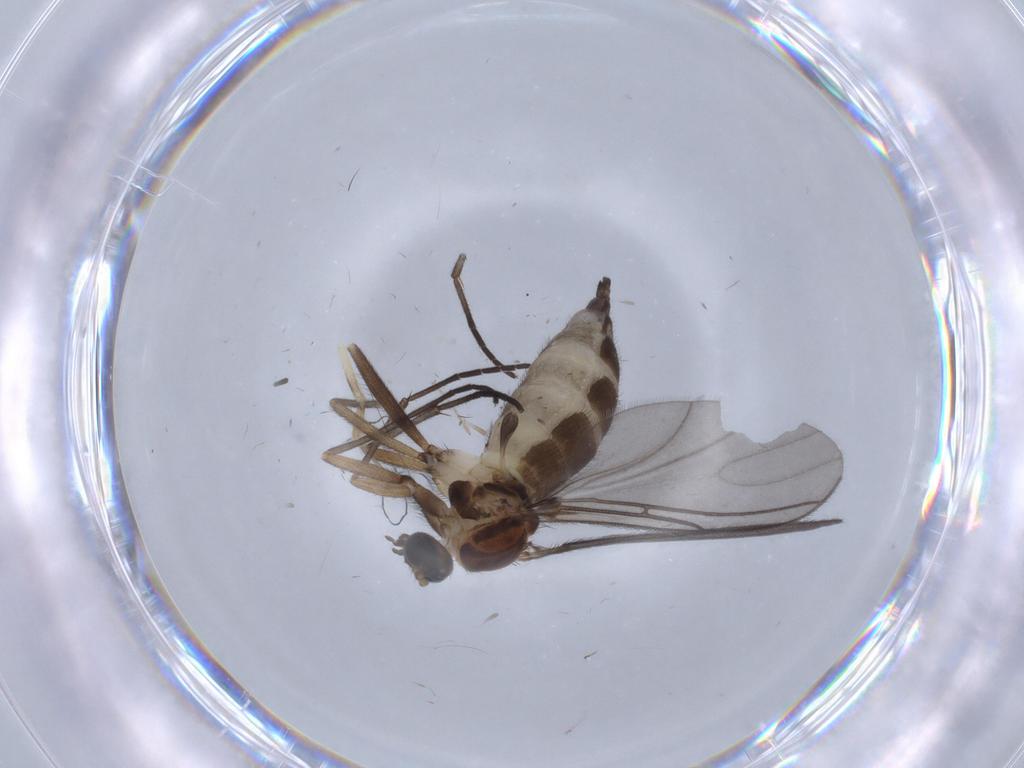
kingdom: Animalia
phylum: Arthropoda
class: Insecta
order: Diptera
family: Sciaridae
